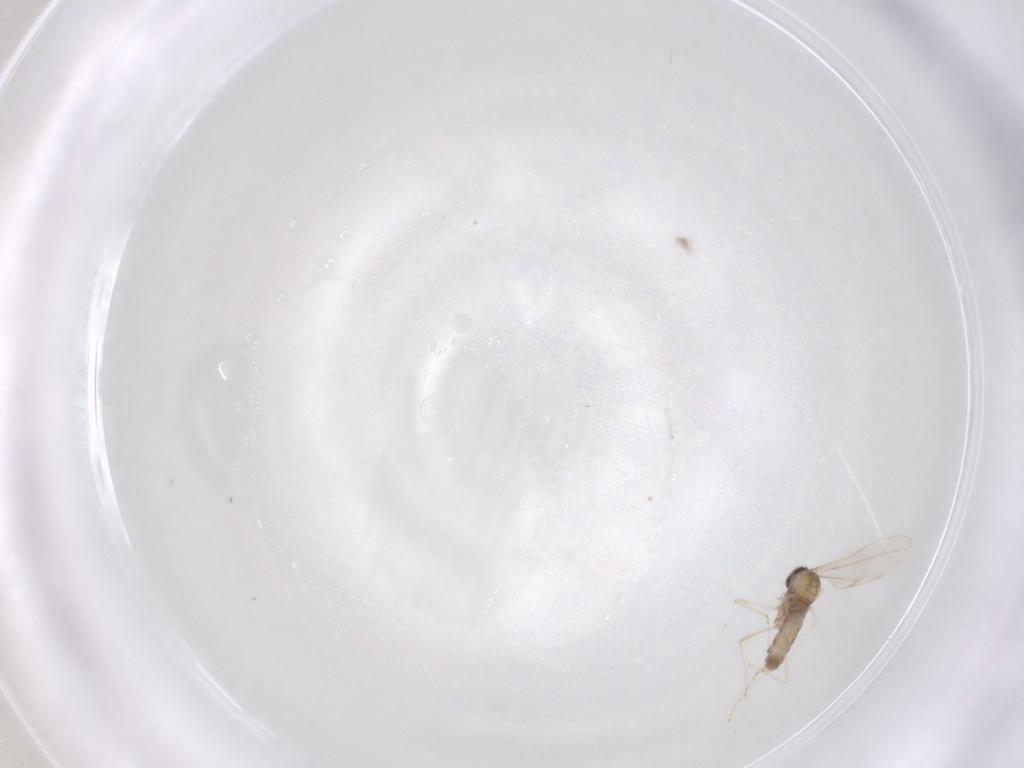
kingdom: Animalia
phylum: Arthropoda
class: Insecta
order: Diptera
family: Cecidomyiidae
